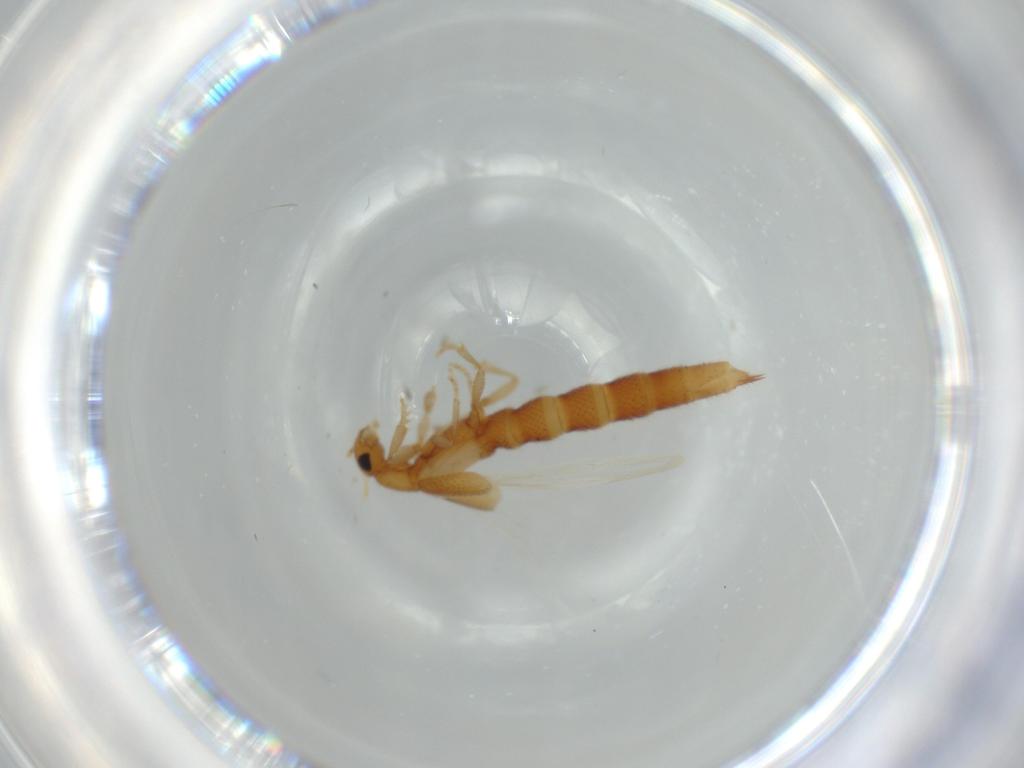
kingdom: Animalia
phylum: Arthropoda
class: Insecta
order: Coleoptera
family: Staphylinidae
